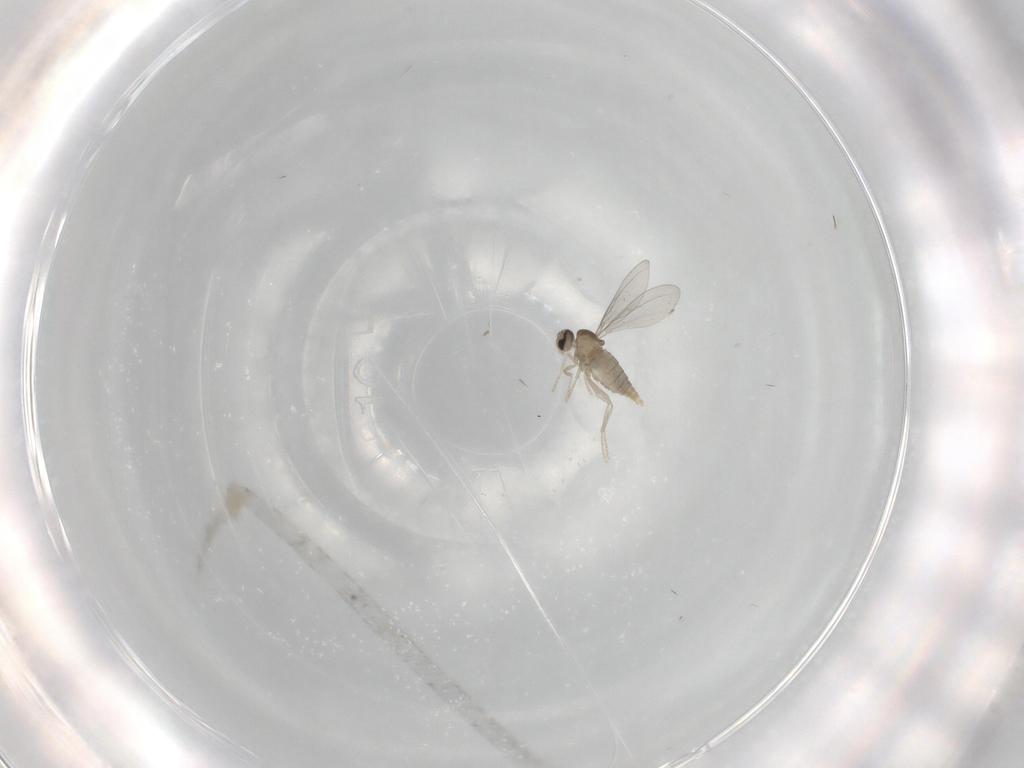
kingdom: Animalia
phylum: Arthropoda
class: Insecta
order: Diptera
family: Cecidomyiidae
